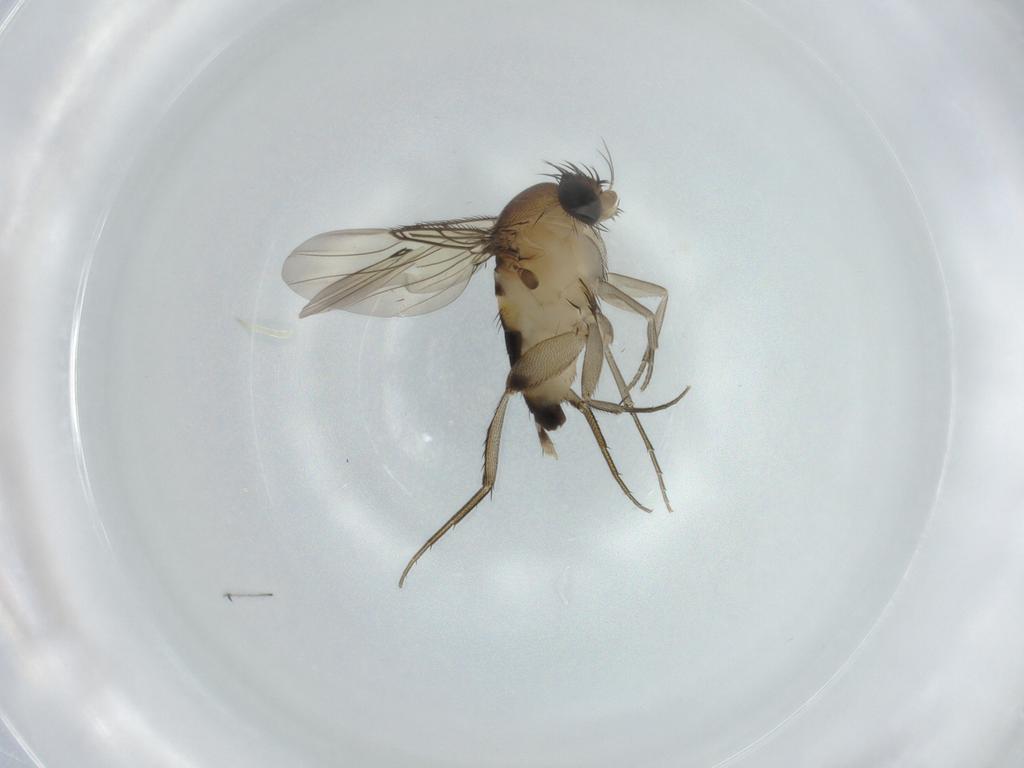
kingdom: Animalia
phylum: Arthropoda
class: Insecta
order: Diptera
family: Phoridae
